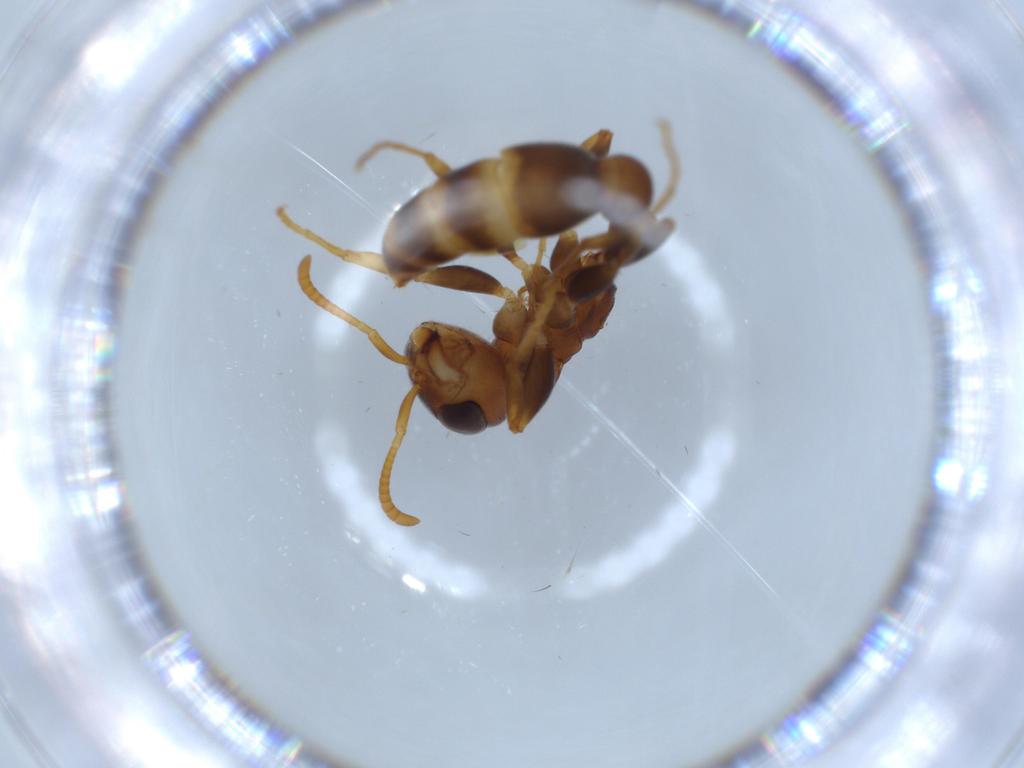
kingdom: Animalia
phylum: Arthropoda
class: Insecta
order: Hymenoptera
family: Formicidae
